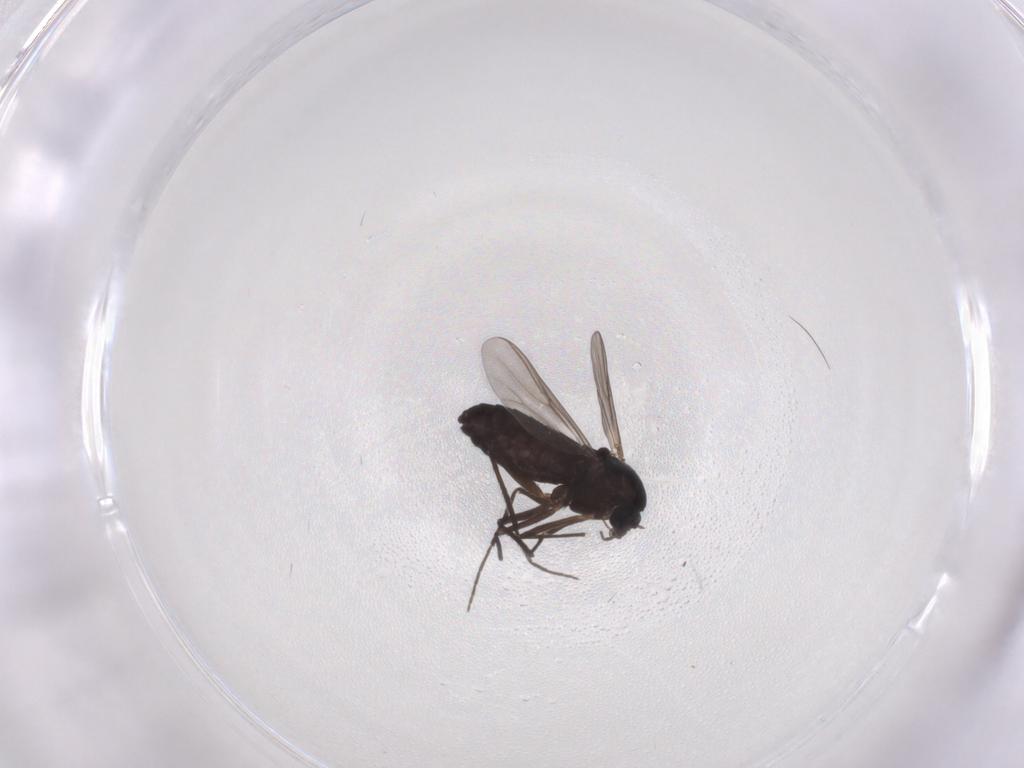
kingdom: Animalia
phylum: Arthropoda
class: Insecta
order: Diptera
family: Chironomidae
